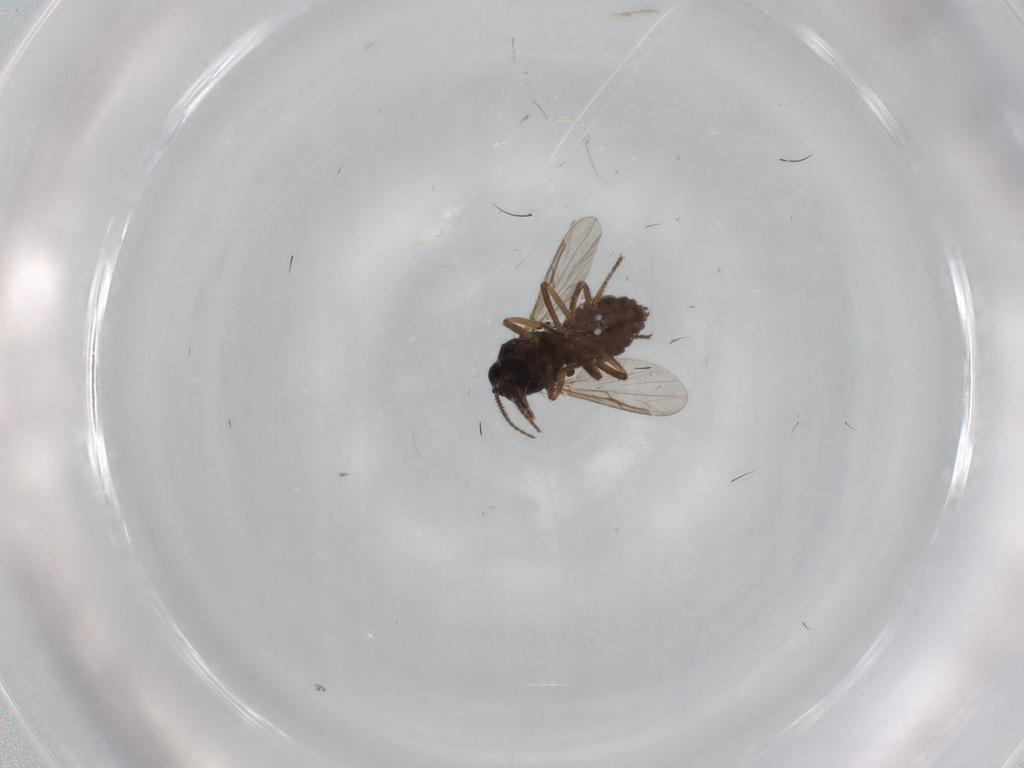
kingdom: Animalia
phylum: Arthropoda
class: Insecta
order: Diptera
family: Ceratopogonidae
